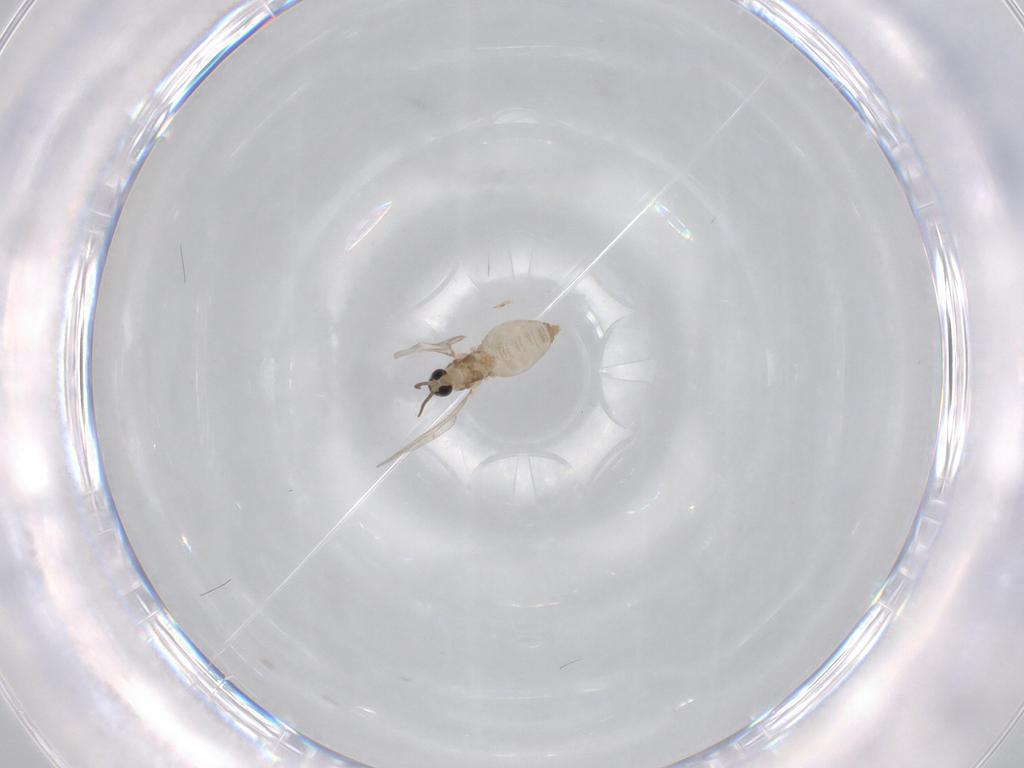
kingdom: Animalia
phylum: Arthropoda
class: Insecta
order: Diptera
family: Cecidomyiidae
